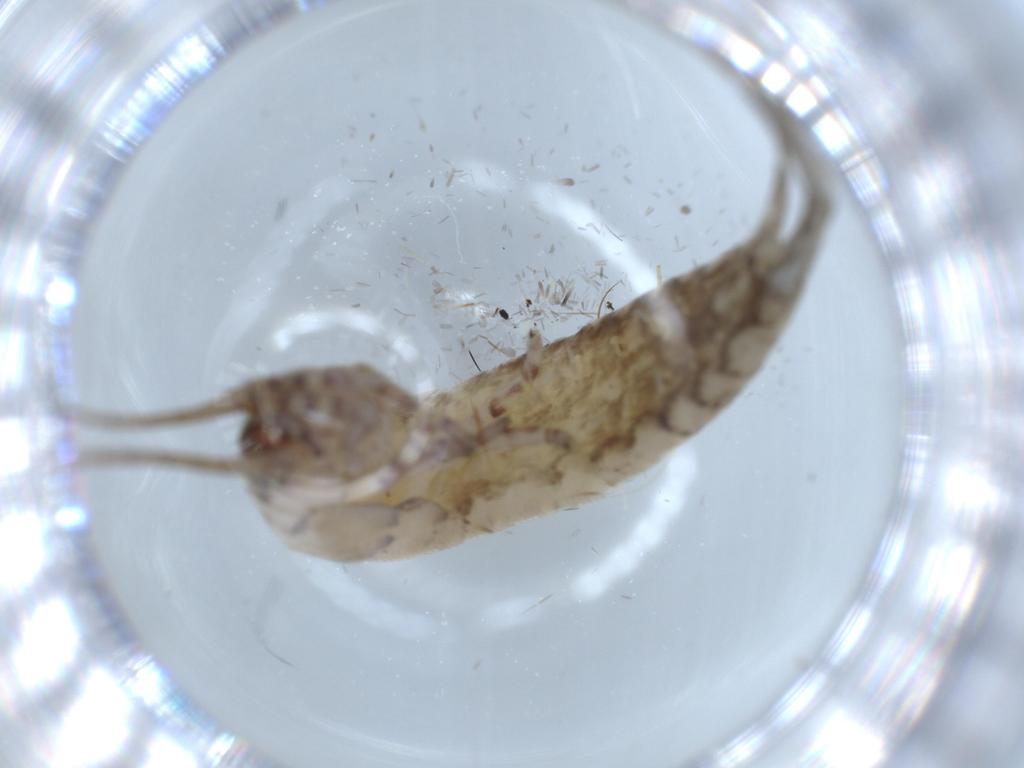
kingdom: Animalia
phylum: Arthropoda
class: Insecta
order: Archaeognatha
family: Machilidae
